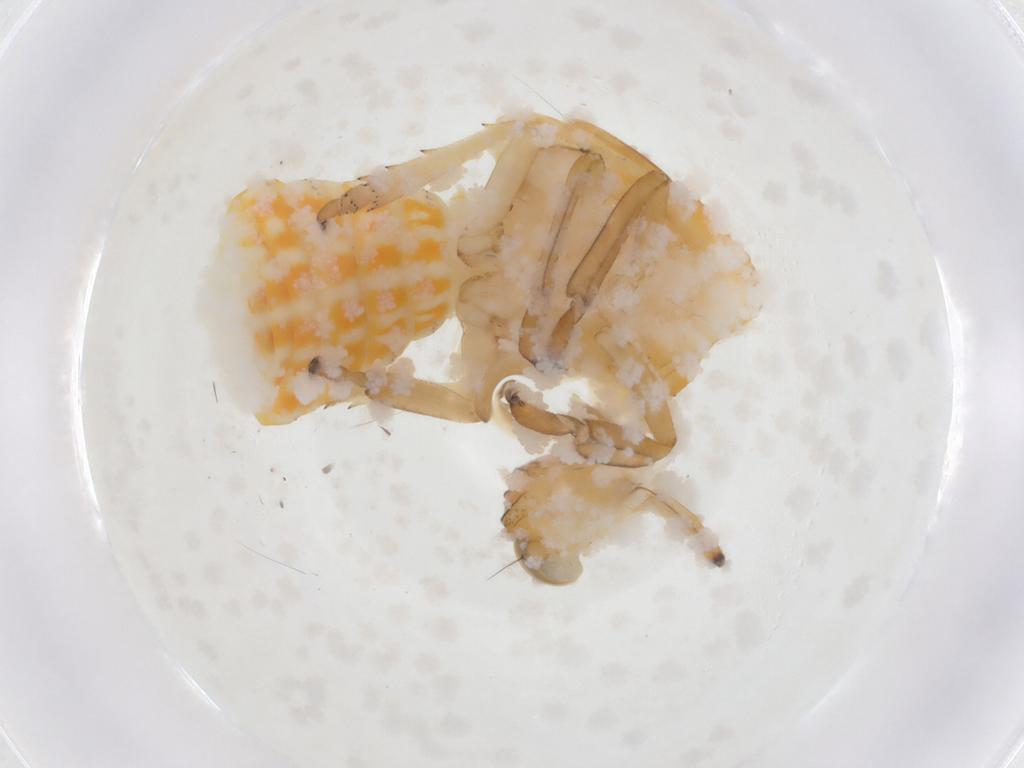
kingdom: Animalia
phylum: Arthropoda
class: Insecta
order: Hemiptera
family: Issidae
